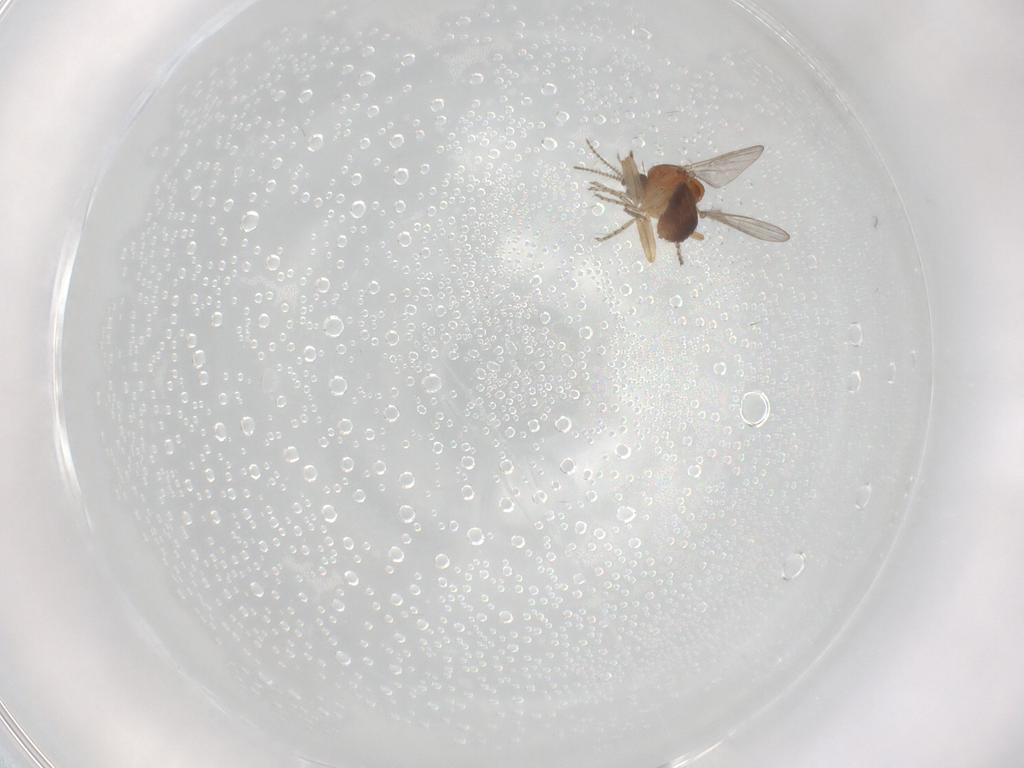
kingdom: Animalia
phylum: Arthropoda
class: Insecta
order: Diptera
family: Ceratopogonidae
